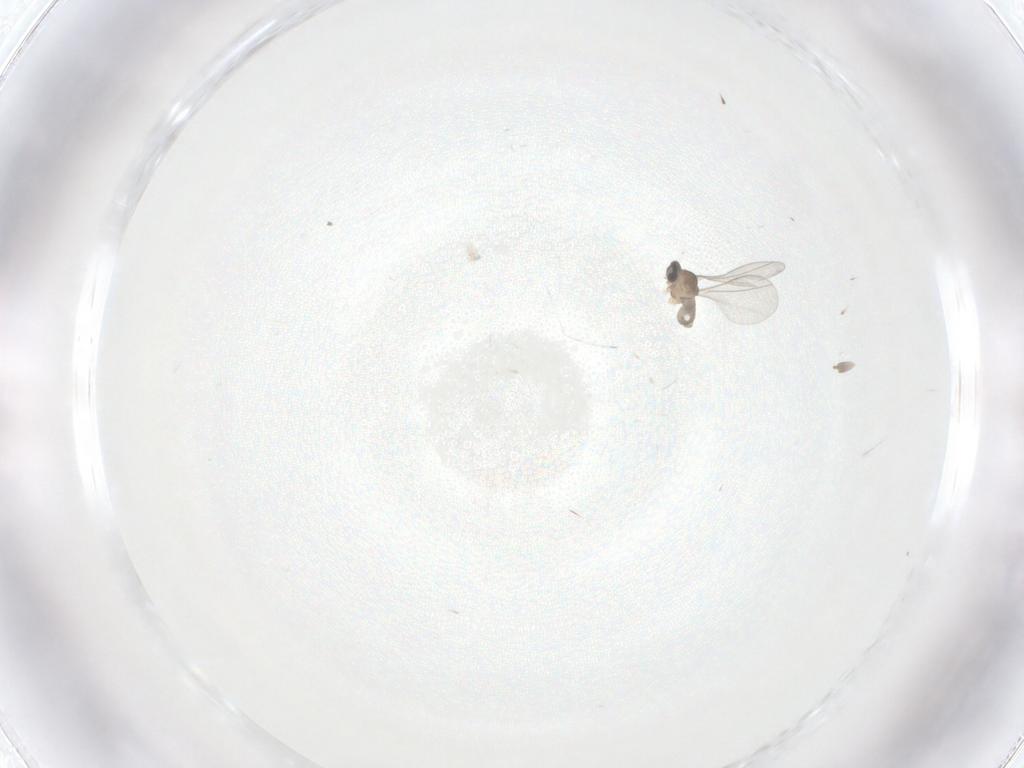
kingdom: Animalia
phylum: Arthropoda
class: Insecta
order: Diptera
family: Cecidomyiidae
